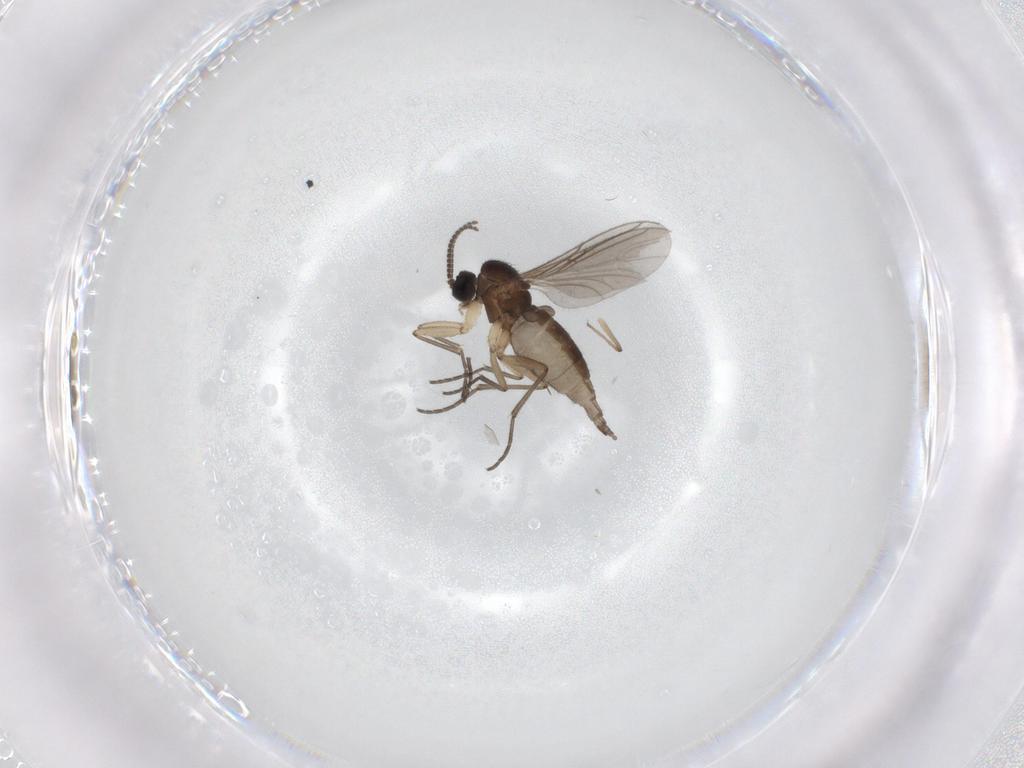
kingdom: Animalia
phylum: Arthropoda
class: Insecta
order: Diptera
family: Sciaridae
